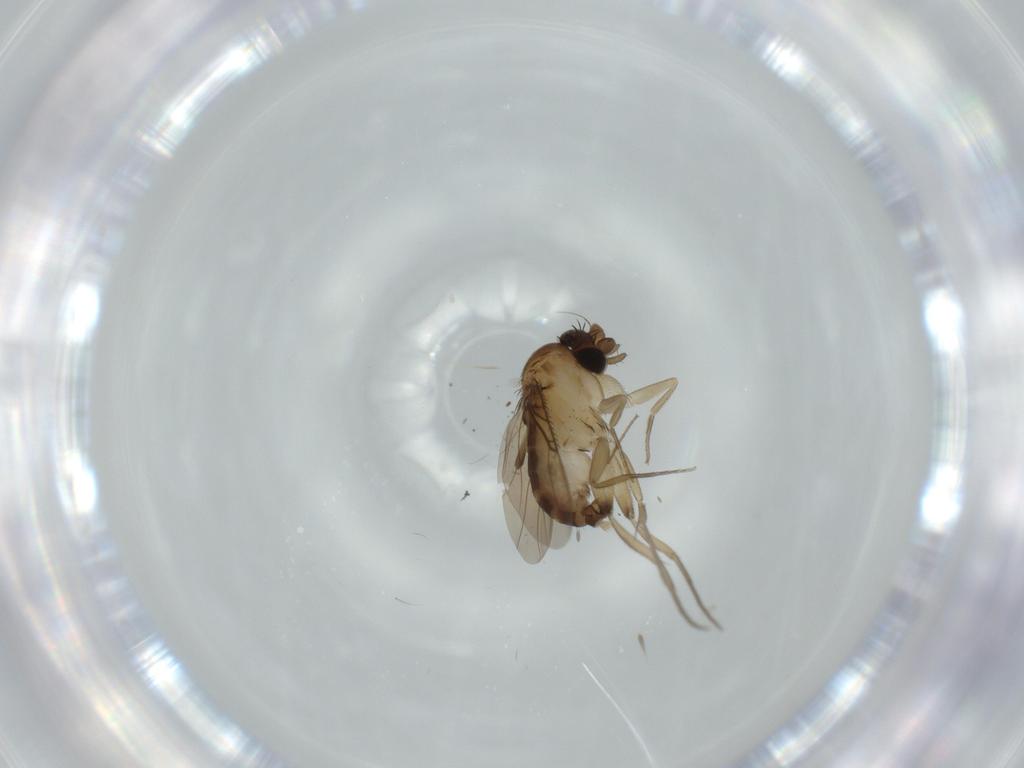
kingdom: Animalia
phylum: Arthropoda
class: Insecta
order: Diptera
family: Phoridae
